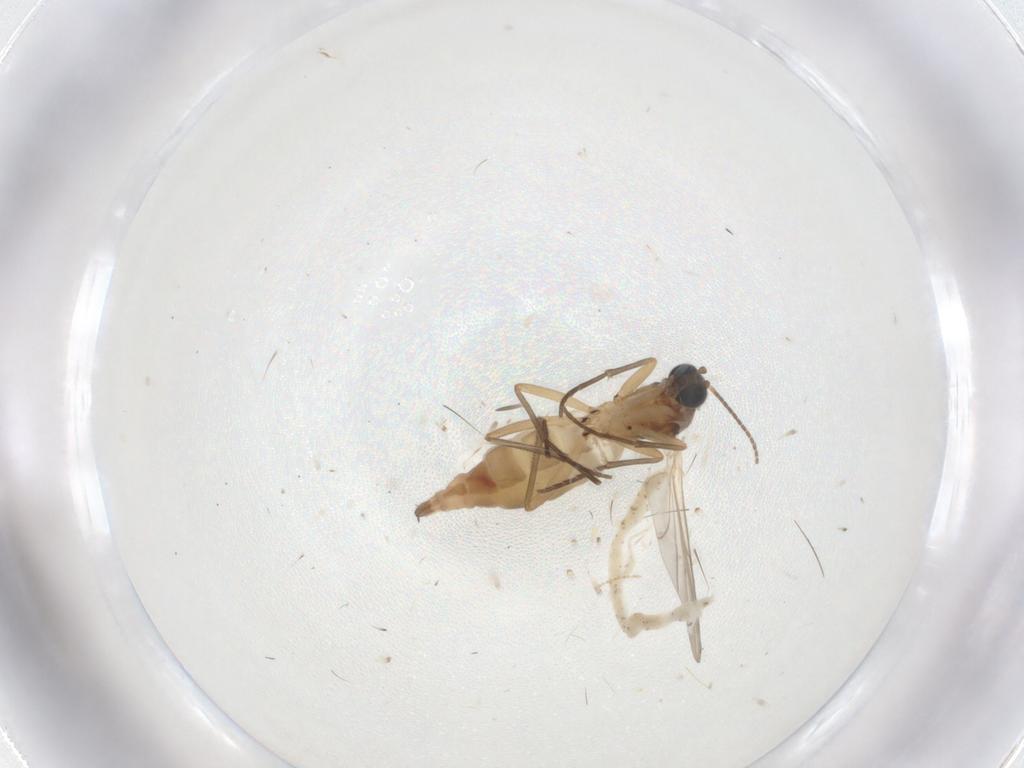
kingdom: Animalia
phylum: Arthropoda
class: Insecta
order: Diptera
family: Sciaridae
